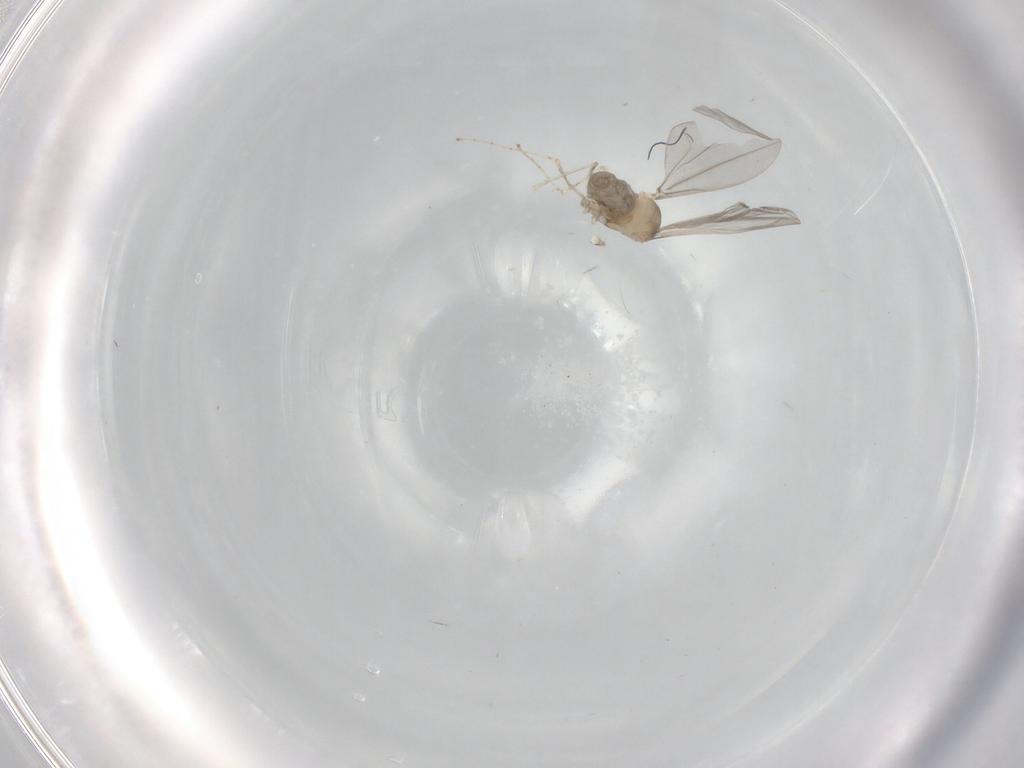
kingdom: Animalia
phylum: Arthropoda
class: Insecta
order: Diptera
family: Cecidomyiidae
